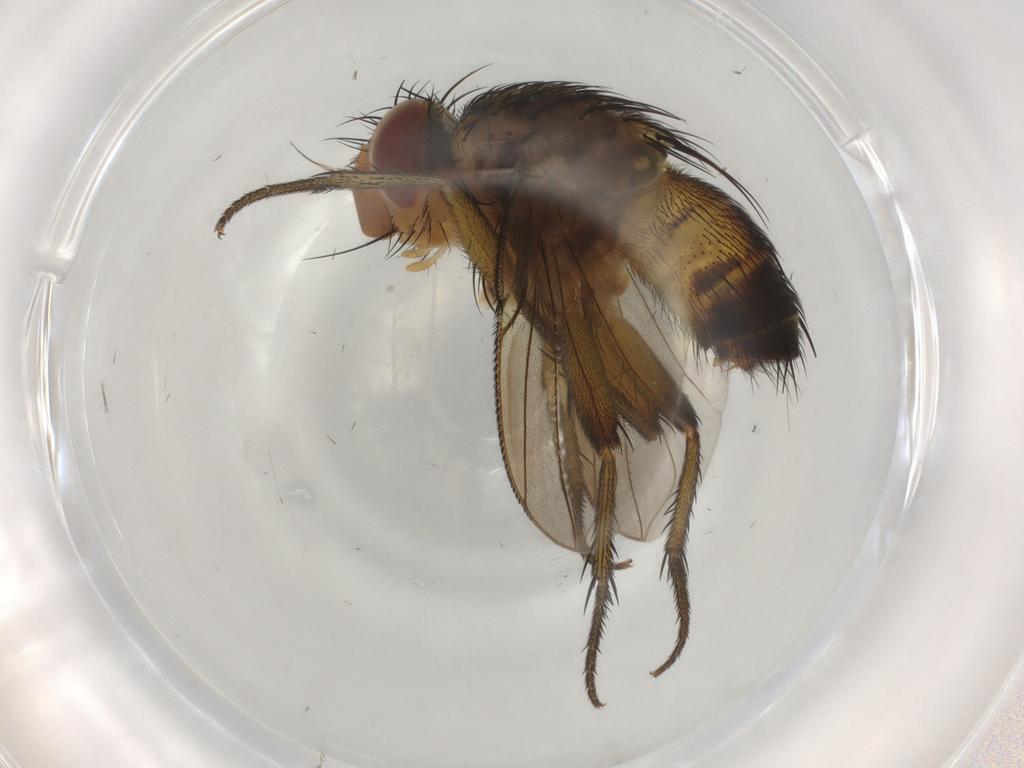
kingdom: Animalia
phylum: Arthropoda
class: Insecta
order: Diptera
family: Tachinidae
